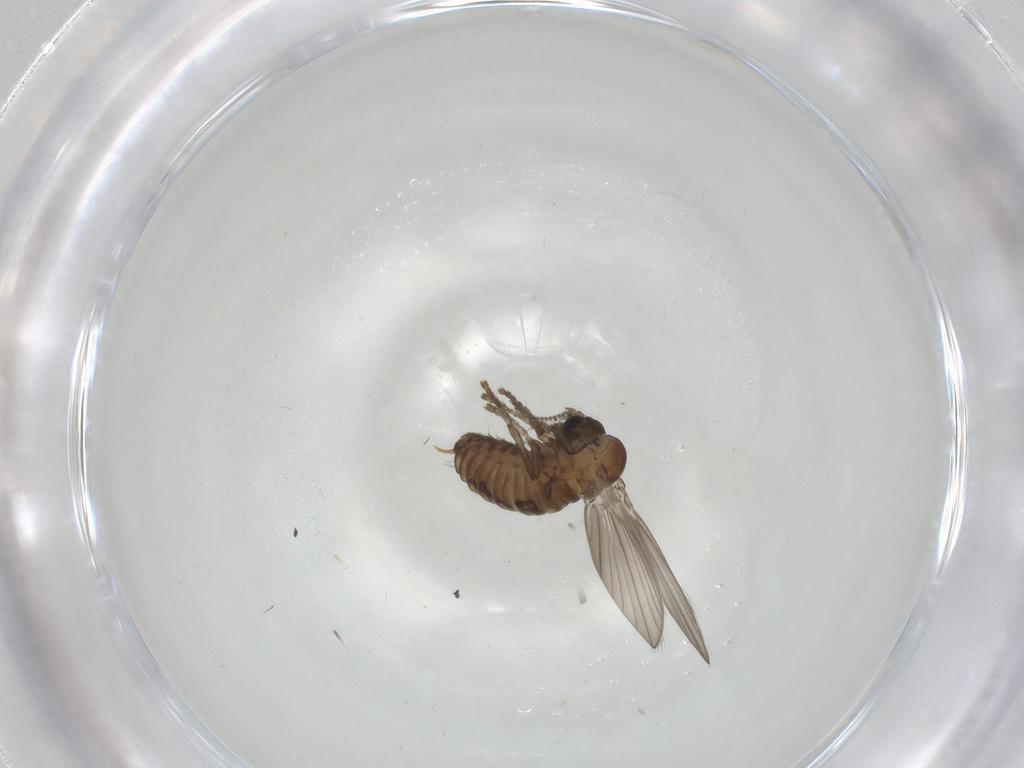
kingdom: Animalia
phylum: Arthropoda
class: Insecta
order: Diptera
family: Psychodidae
